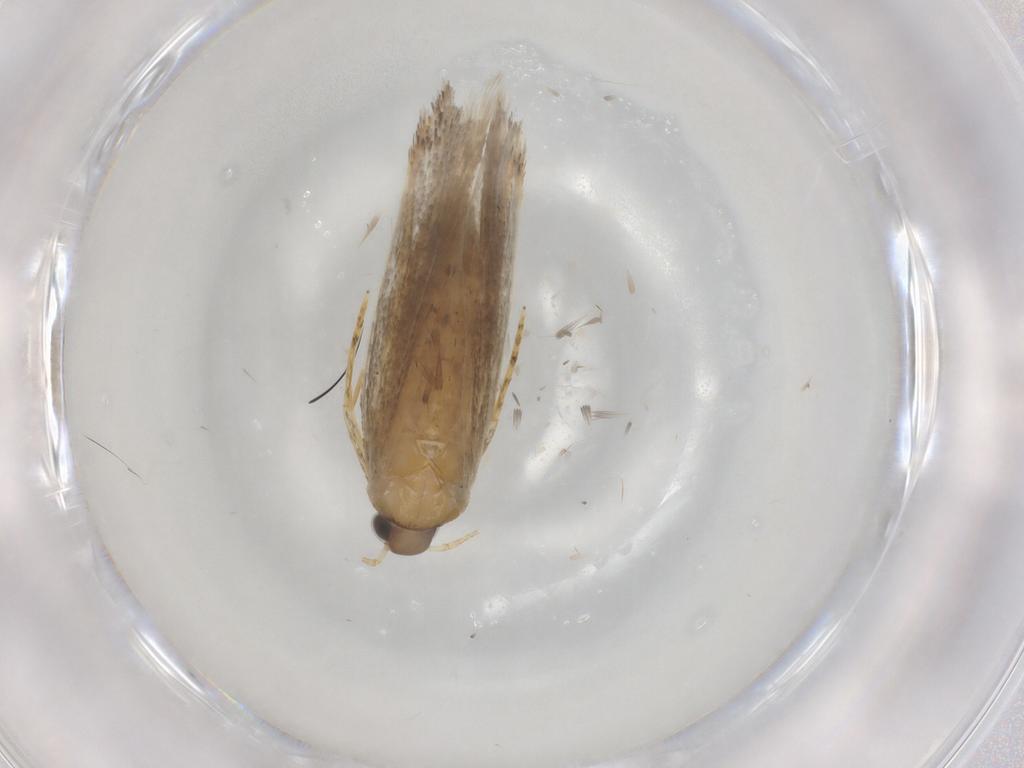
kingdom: Animalia
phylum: Arthropoda
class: Insecta
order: Lepidoptera
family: Autostichidae
